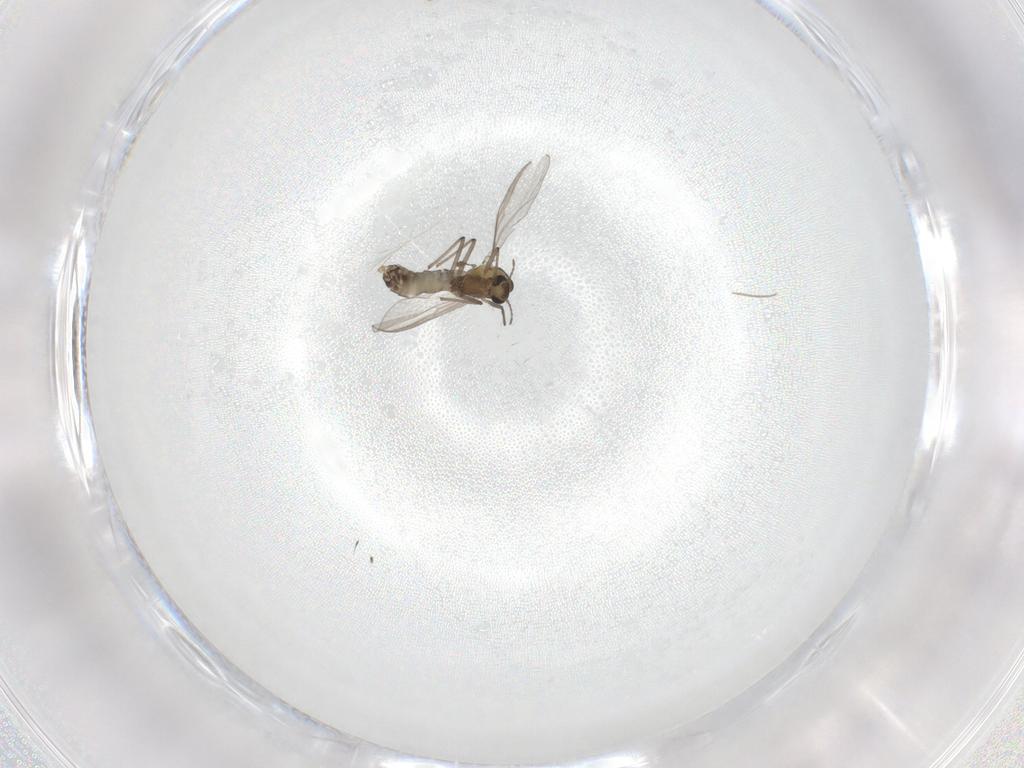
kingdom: Animalia
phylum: Arthropoda
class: Insecta
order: Diptera
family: Chironomidae
